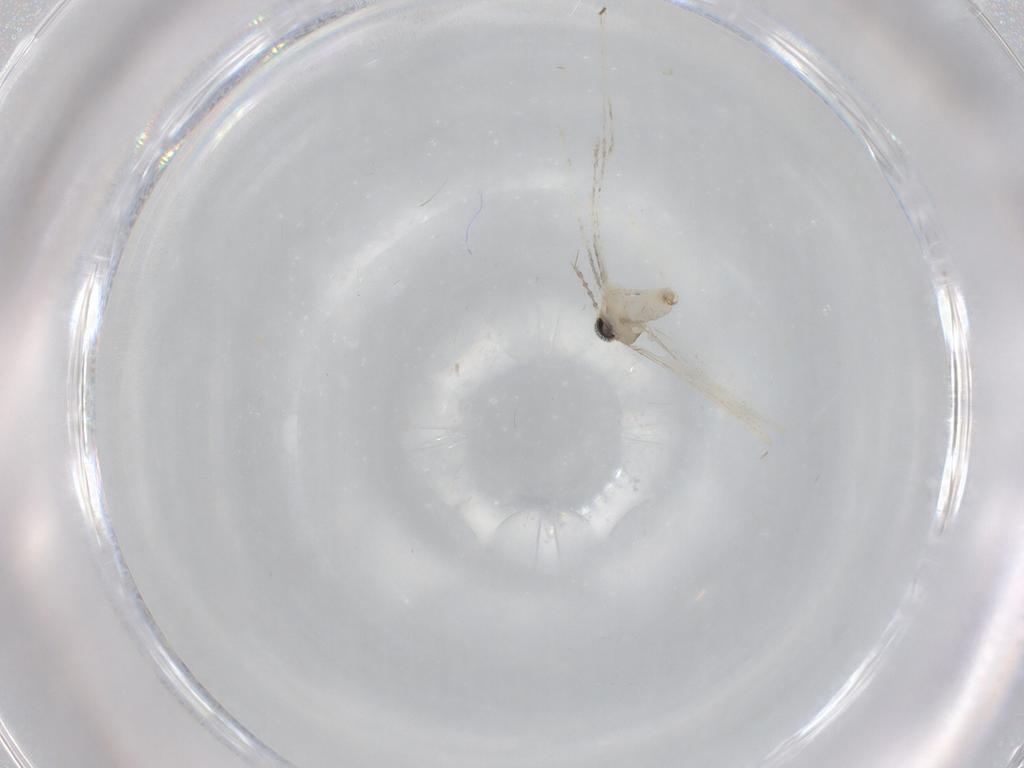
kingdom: Animalia
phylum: Arthropoda
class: Insecta
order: Diptera
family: Cecidomyiidae
